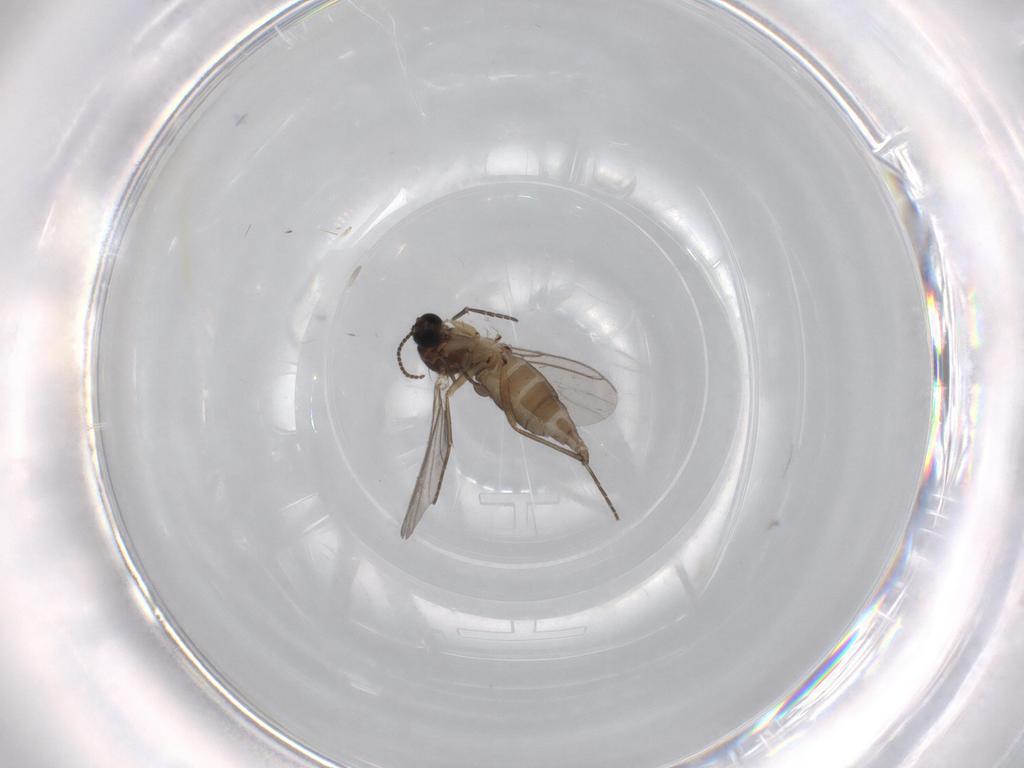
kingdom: Animalia
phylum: Arthropoda
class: Insecta
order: Diptera
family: Sciaridae
